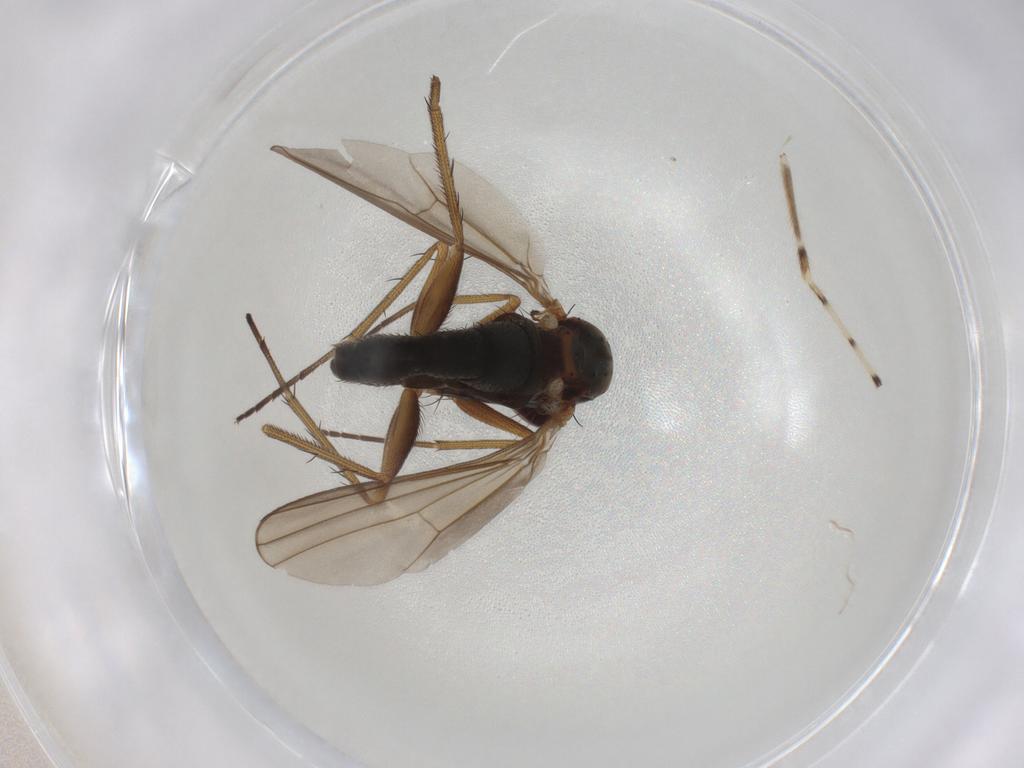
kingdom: Animalia
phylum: Arthropoda
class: Insecta
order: Diptera
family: Dolichopodidae
